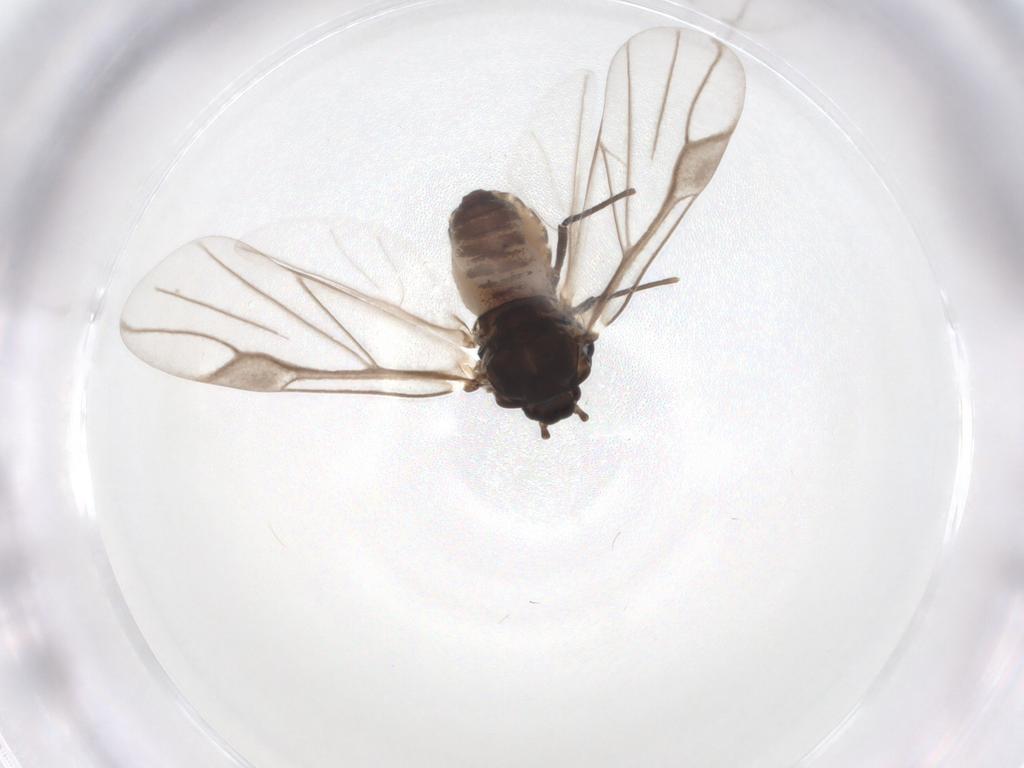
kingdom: Animalia
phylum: Arthropoda
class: Insecta
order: Hemiptera
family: Aphididae
